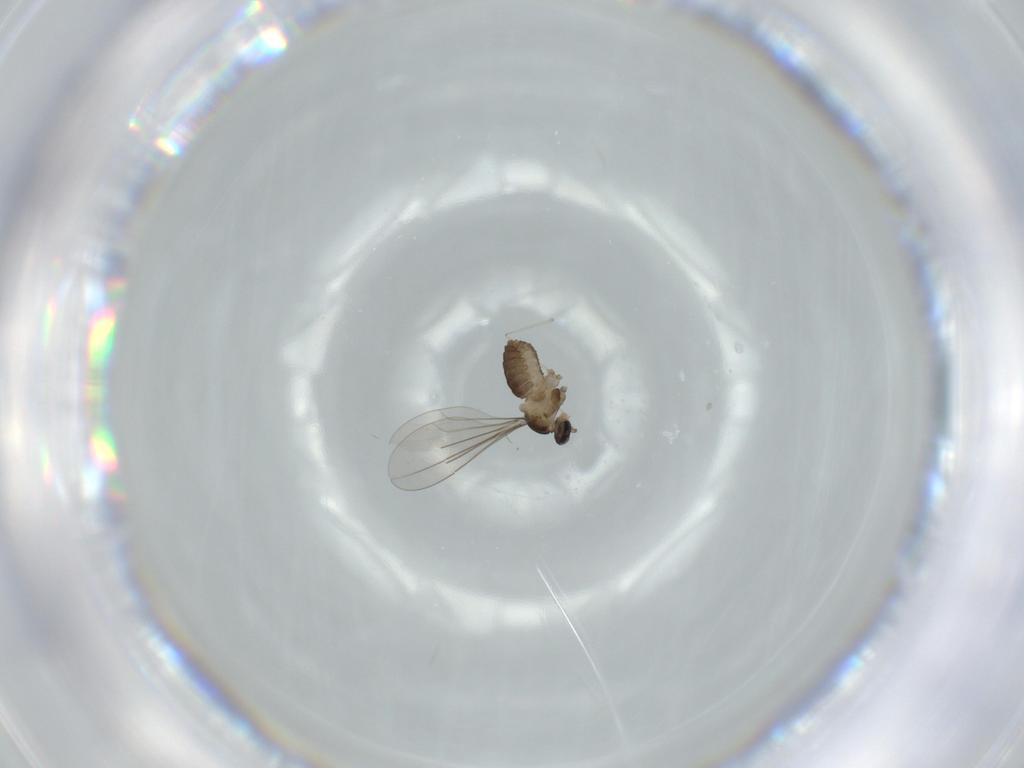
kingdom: Animalia
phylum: Arthropoda
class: Insecta
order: Diptera
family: Cecidomyiidae
